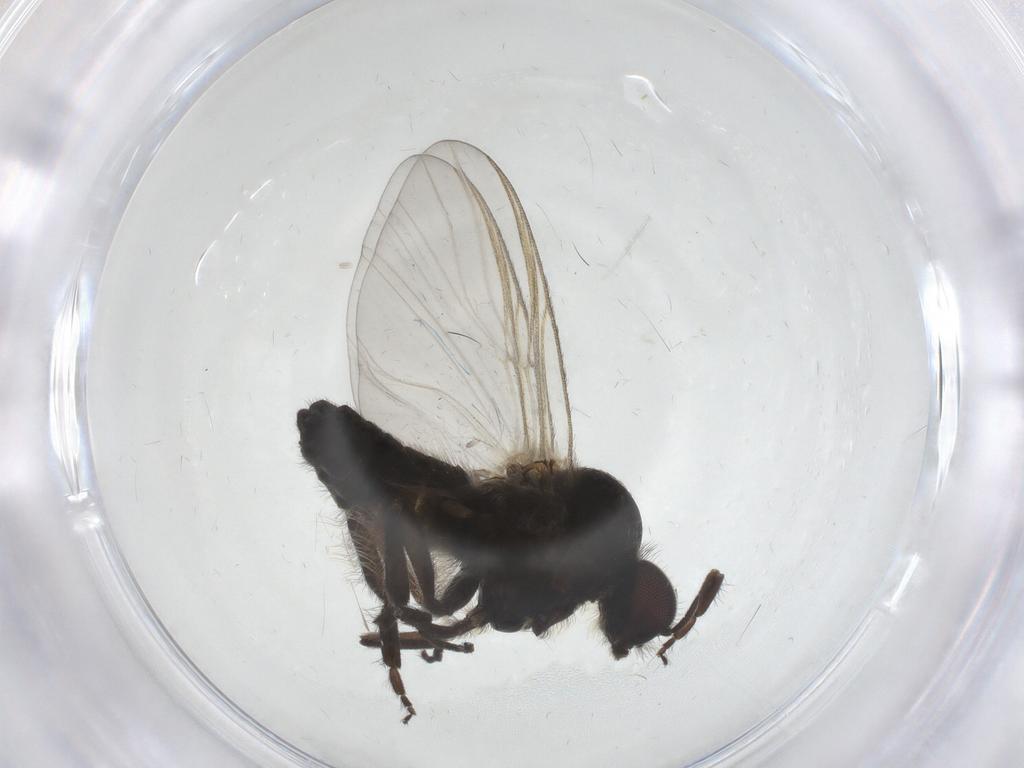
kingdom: Animalia
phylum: Arthropoda
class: Insecta
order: Diptera
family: Simuliidae
